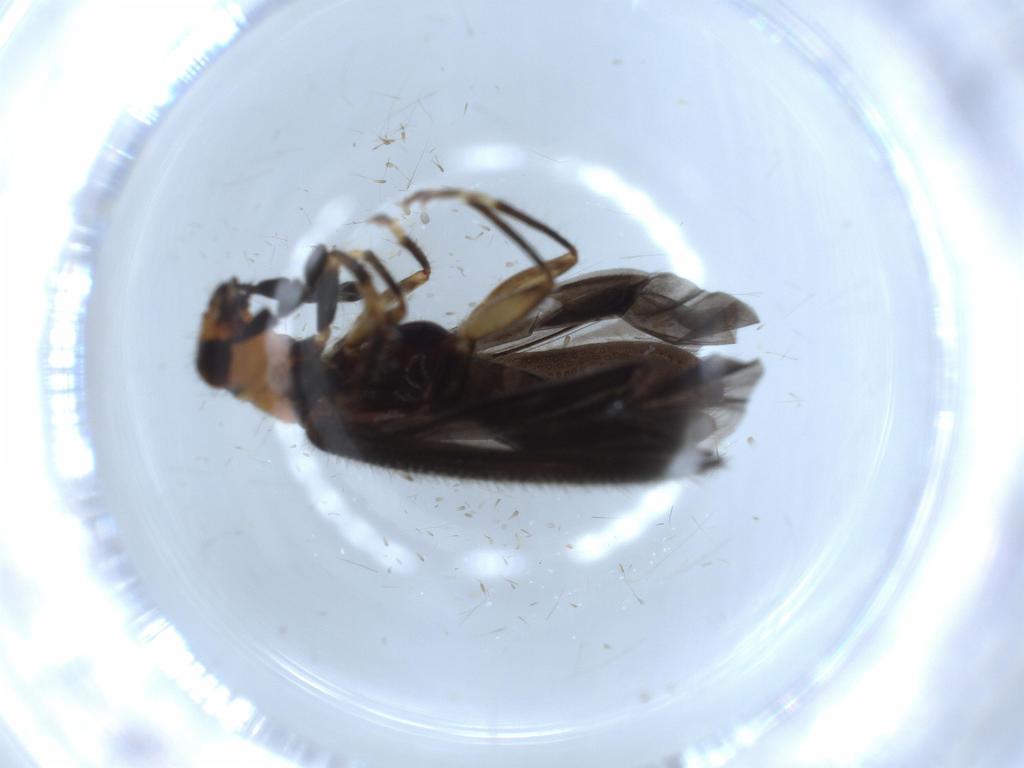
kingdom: Animalia
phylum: Arthropoda
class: Insecta
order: Coleoptera
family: Cleridae
